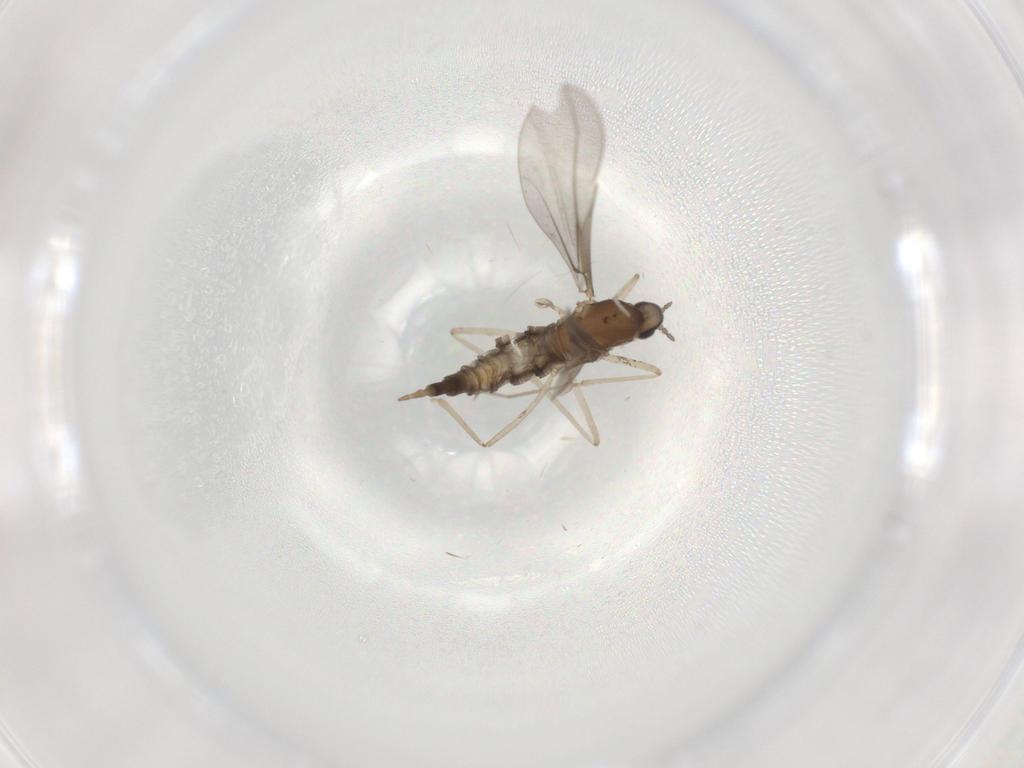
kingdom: Animalia
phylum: Arthropoda
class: Insecta
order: Diptera
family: Cecidomyiidae
